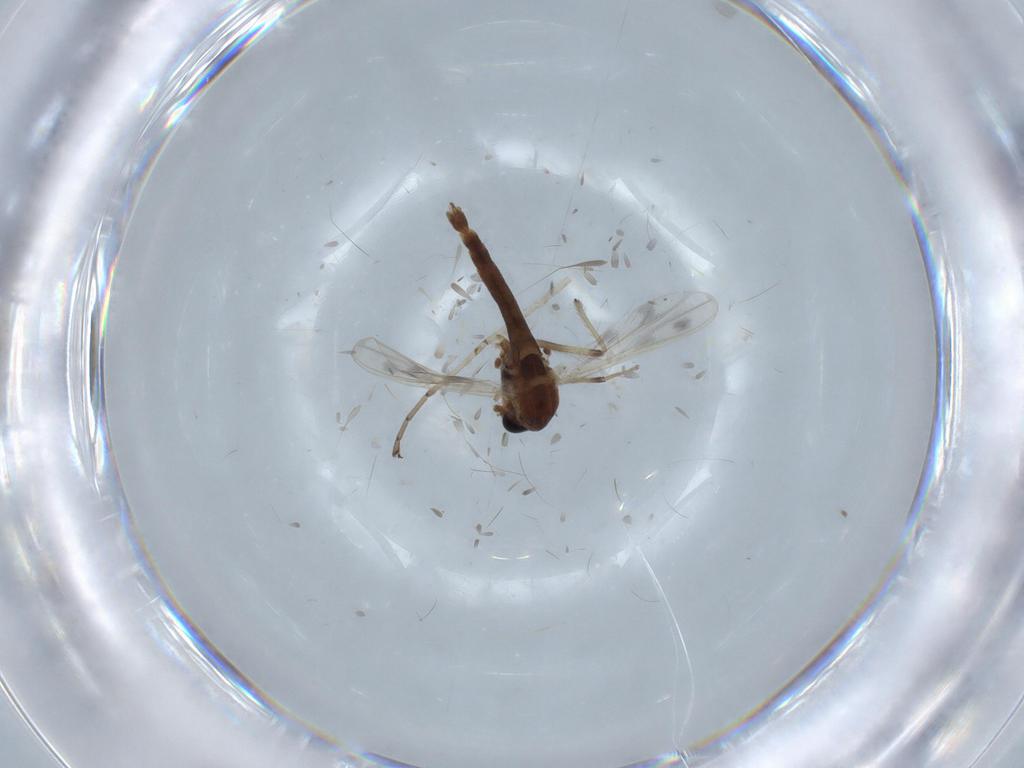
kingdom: Animalia
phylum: Arthropoda
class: Insecta
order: Diptera
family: Chironomidae
